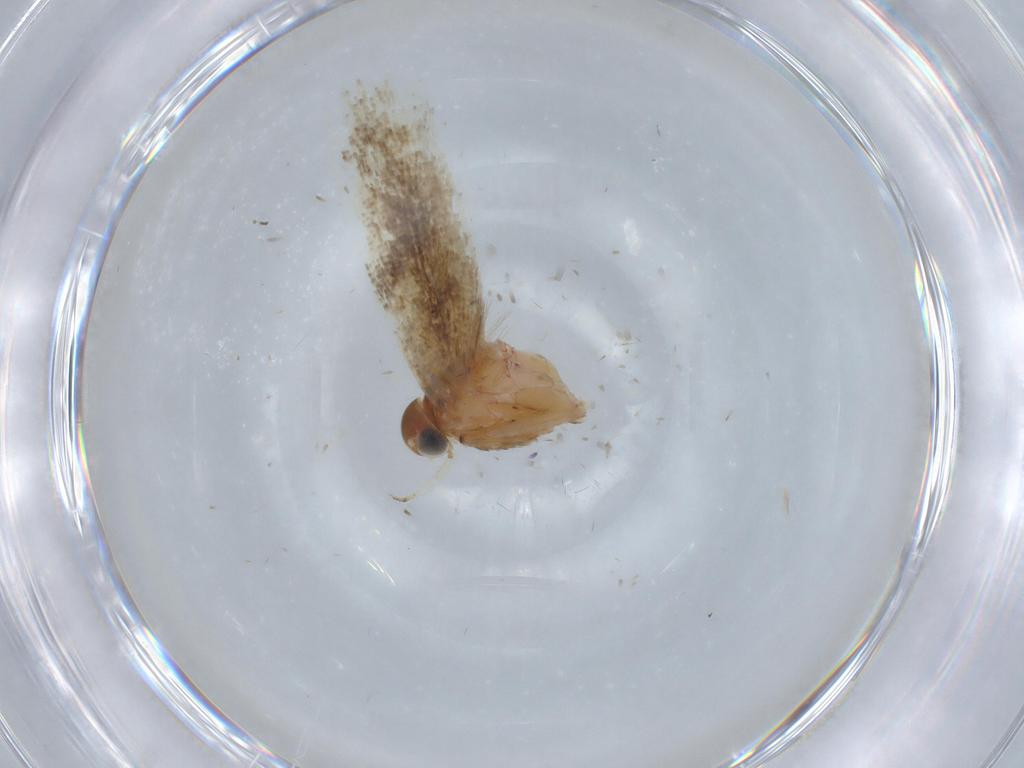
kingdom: Animalia
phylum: Arthropoda
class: Insecta
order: Lepidoptera
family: Gelechiidae
